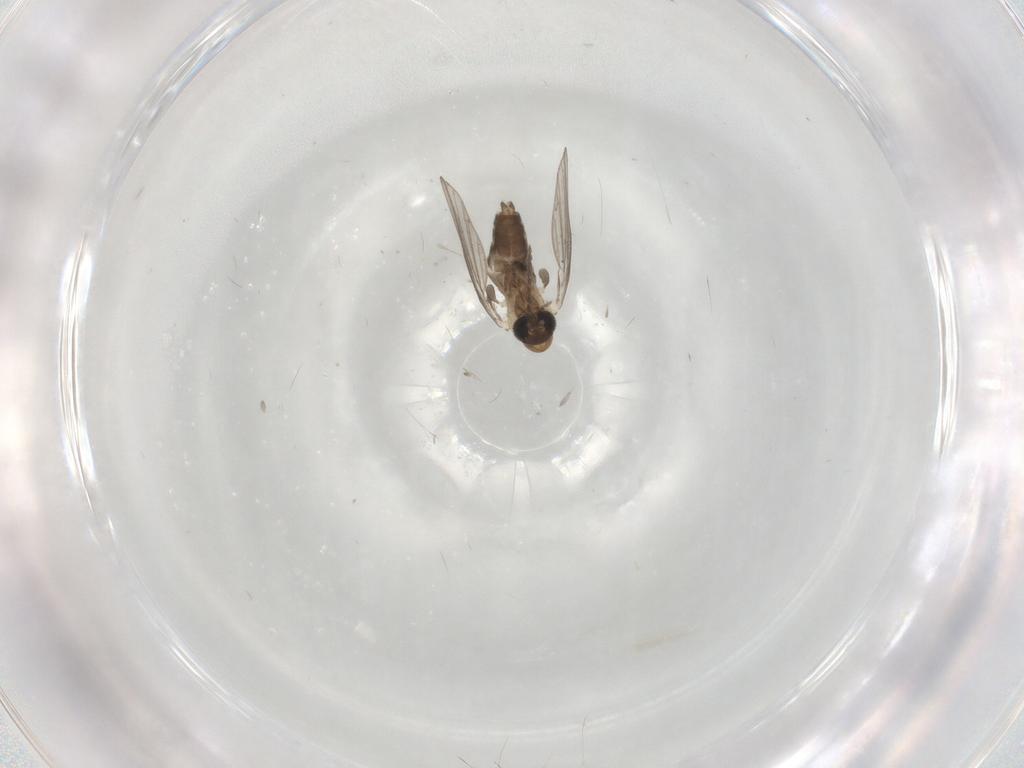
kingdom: Animalia
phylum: Arthropoda
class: Insecta
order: Diptera
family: Psychodidae
